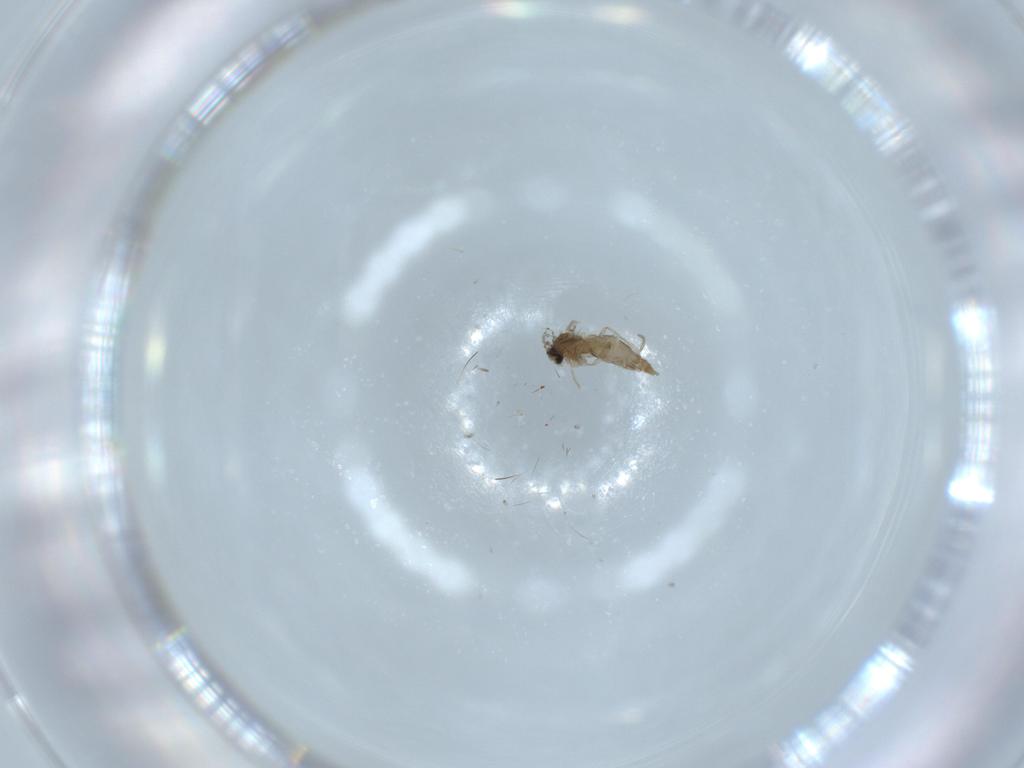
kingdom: Animalia
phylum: Arthropoda
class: Insecta
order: Diptera
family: Cecidomyiidae
